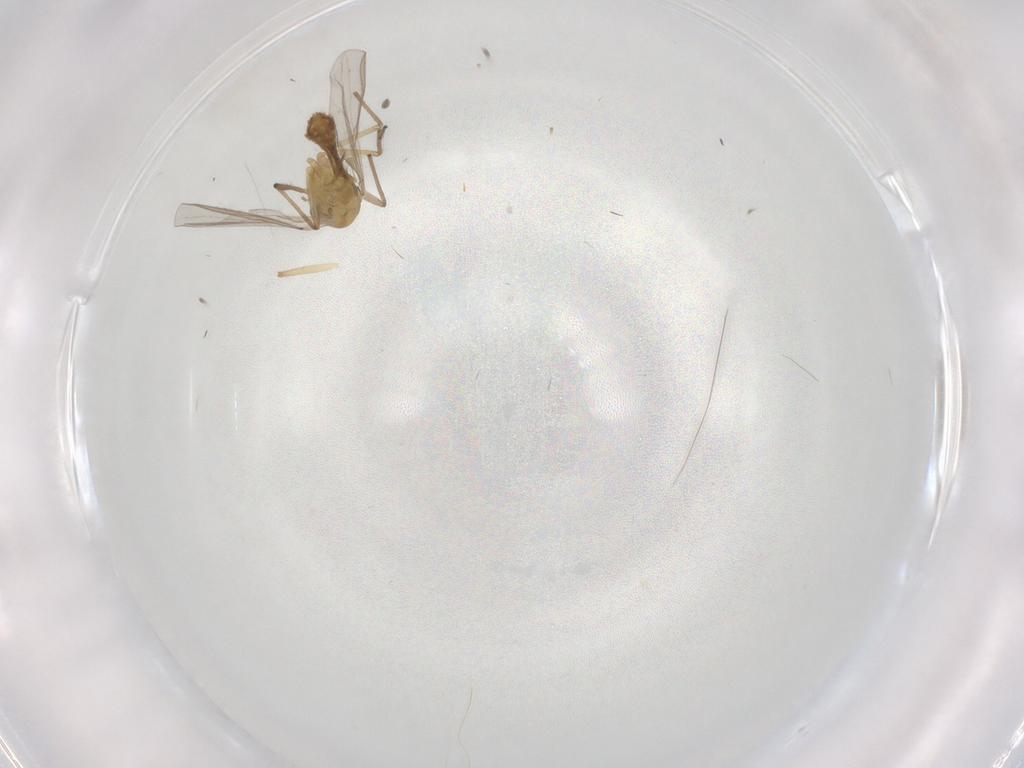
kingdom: Animalia
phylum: Arthropoda
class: Insecta
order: Diptera
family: Chironomidae
